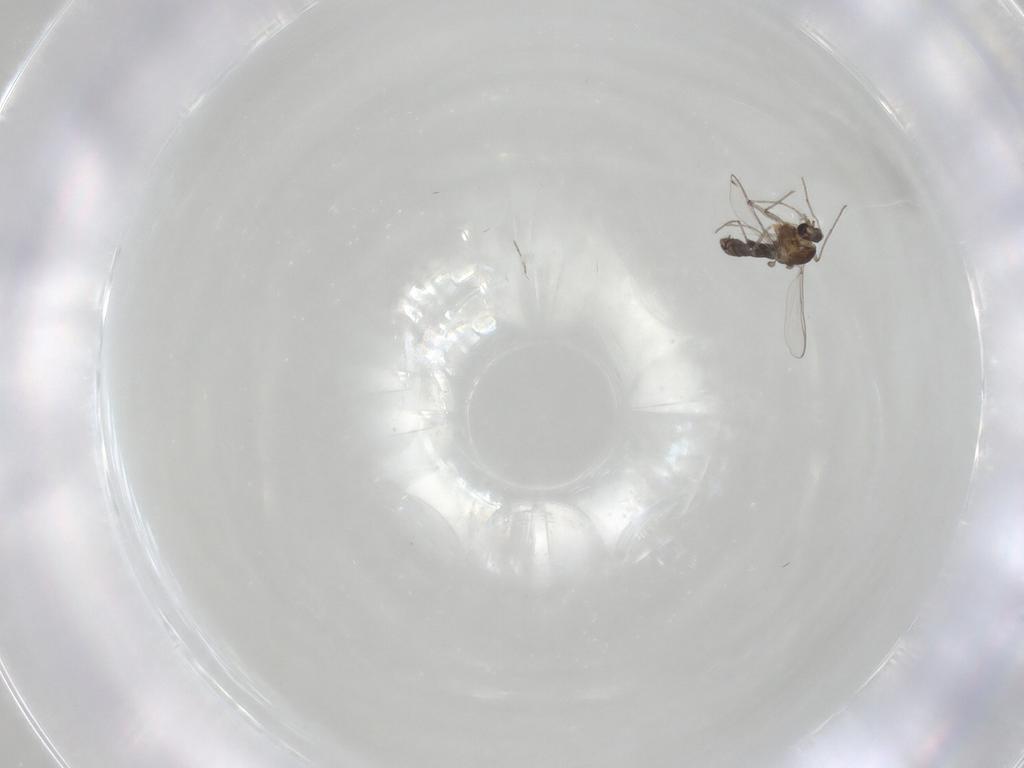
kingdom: Animalia
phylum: Arthropoda
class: Insecta
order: Diptera
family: Chironomidae
